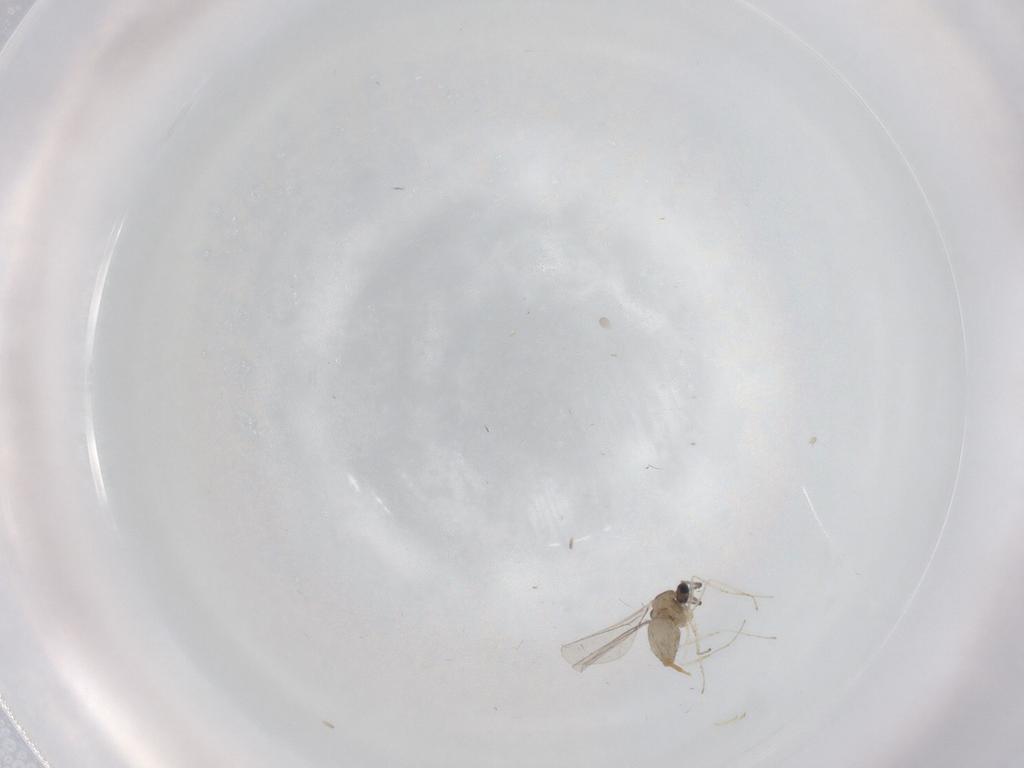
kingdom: Animalia
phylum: Arthropoda
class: Insecta
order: Diptera
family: Cecidomyiidae
